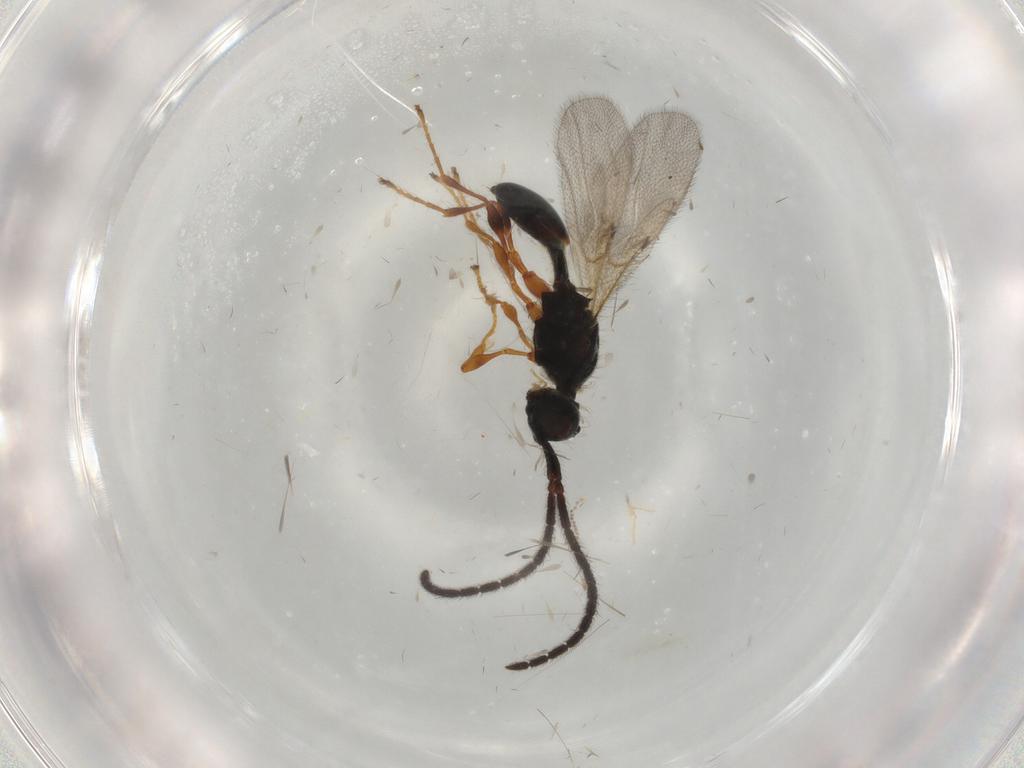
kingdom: Animalia
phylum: Arthropoda
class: Insecta
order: Hymenoptera
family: Diapriidae
